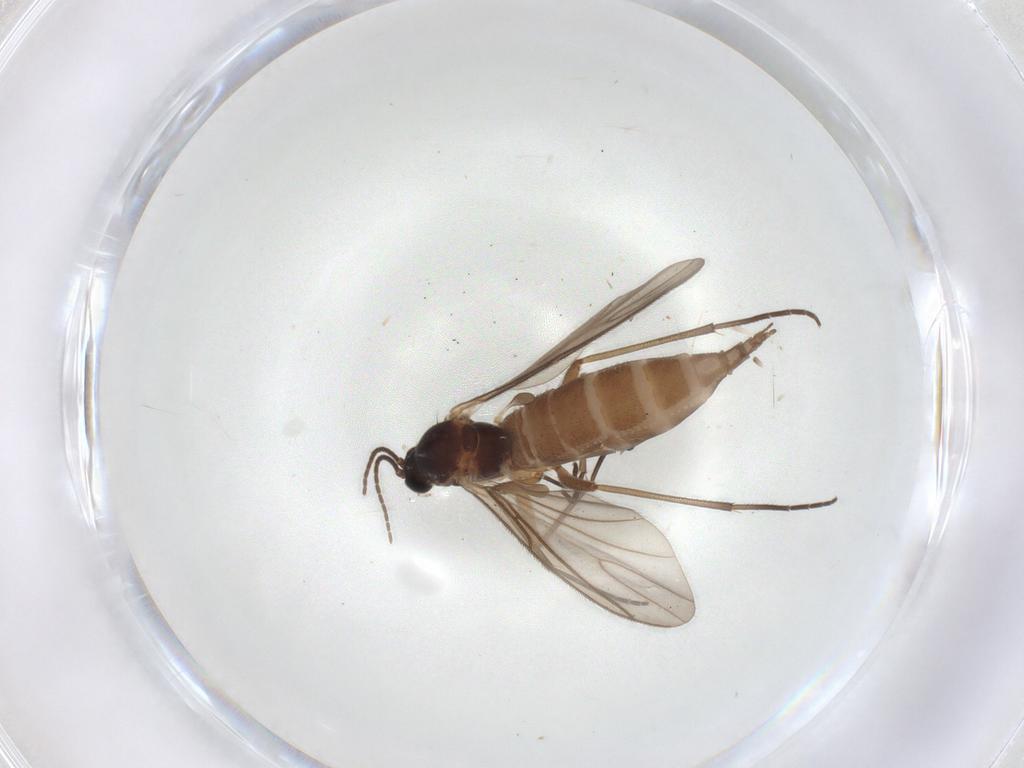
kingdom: Animalia
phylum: Arthropoda
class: Insecta
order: Diptera
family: Sciaridae
